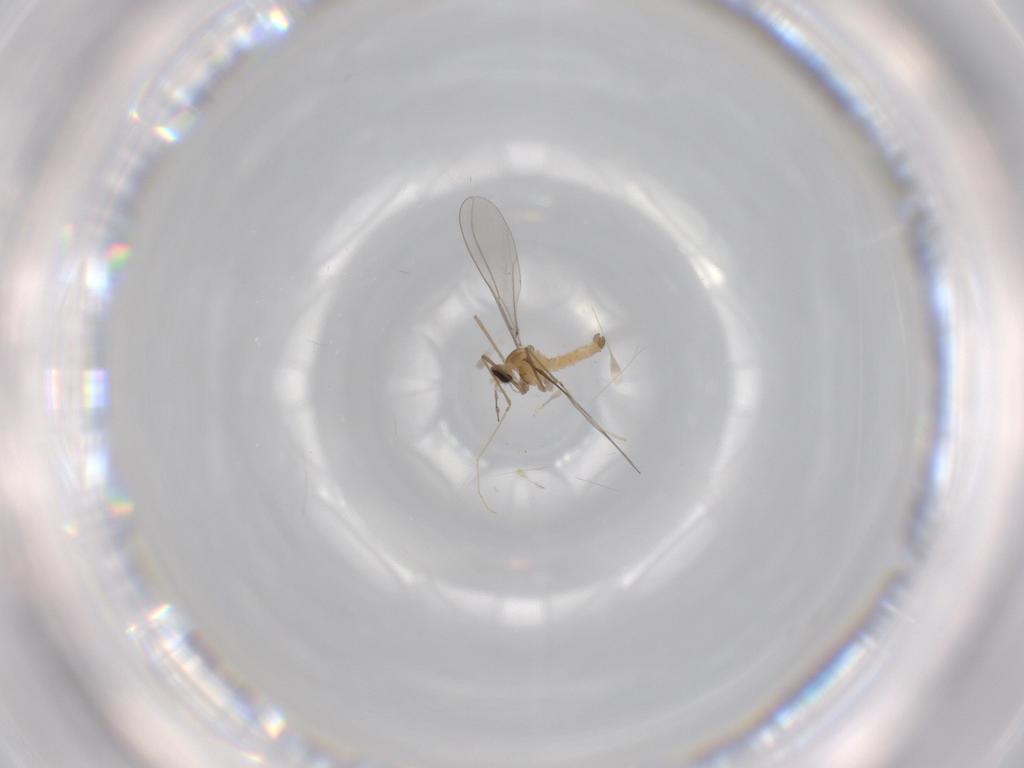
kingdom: Animalia
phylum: Arthropoda
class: Insecta
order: Diptera
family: Cecidomyiidae
